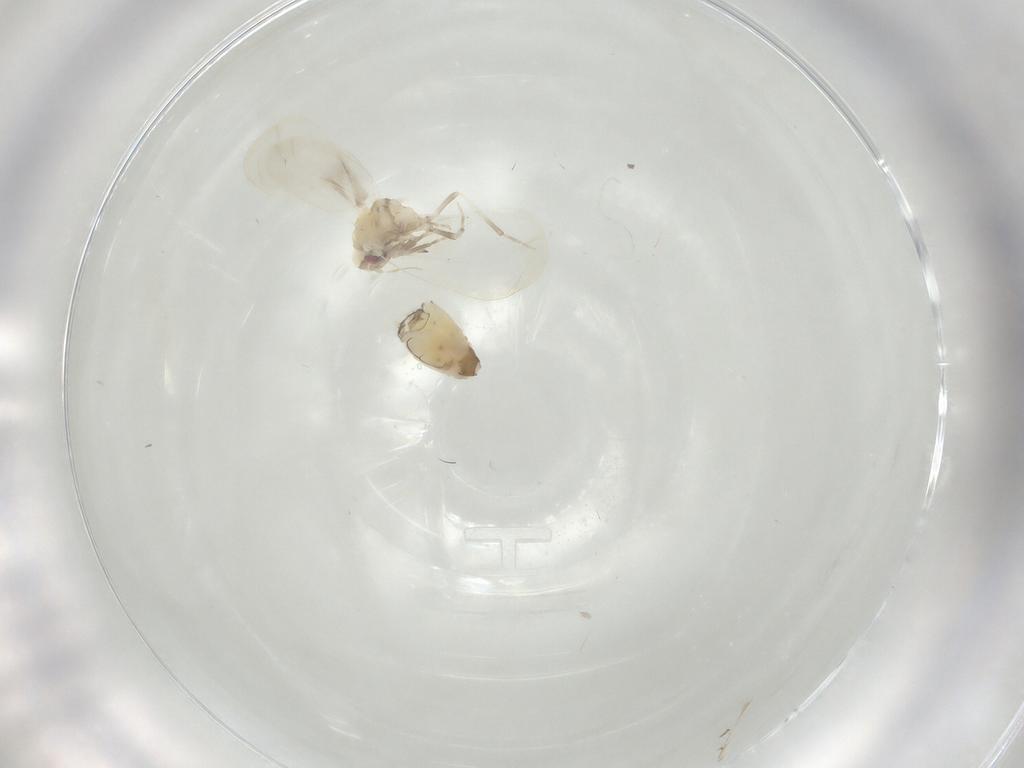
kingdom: Animalia
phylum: Arthropoda
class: Insecta
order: Hemiptera
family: Aleyrodidae
